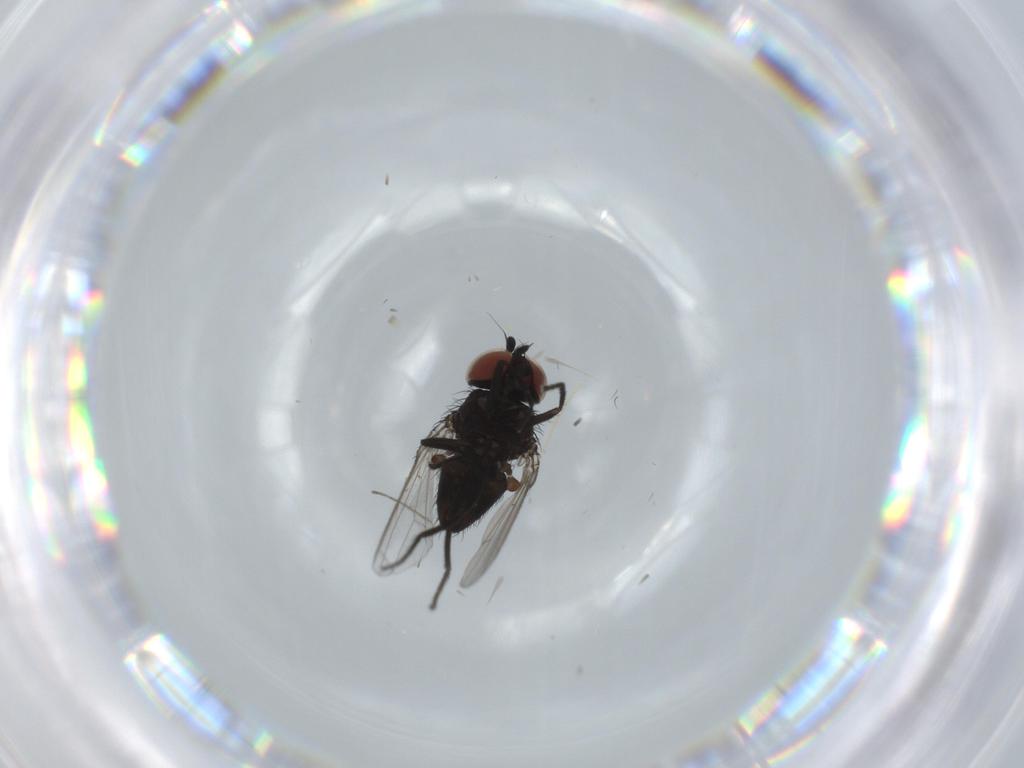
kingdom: Animalia
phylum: Arthropoda
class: Insecta
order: Diptera
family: Cecidomyiidae
